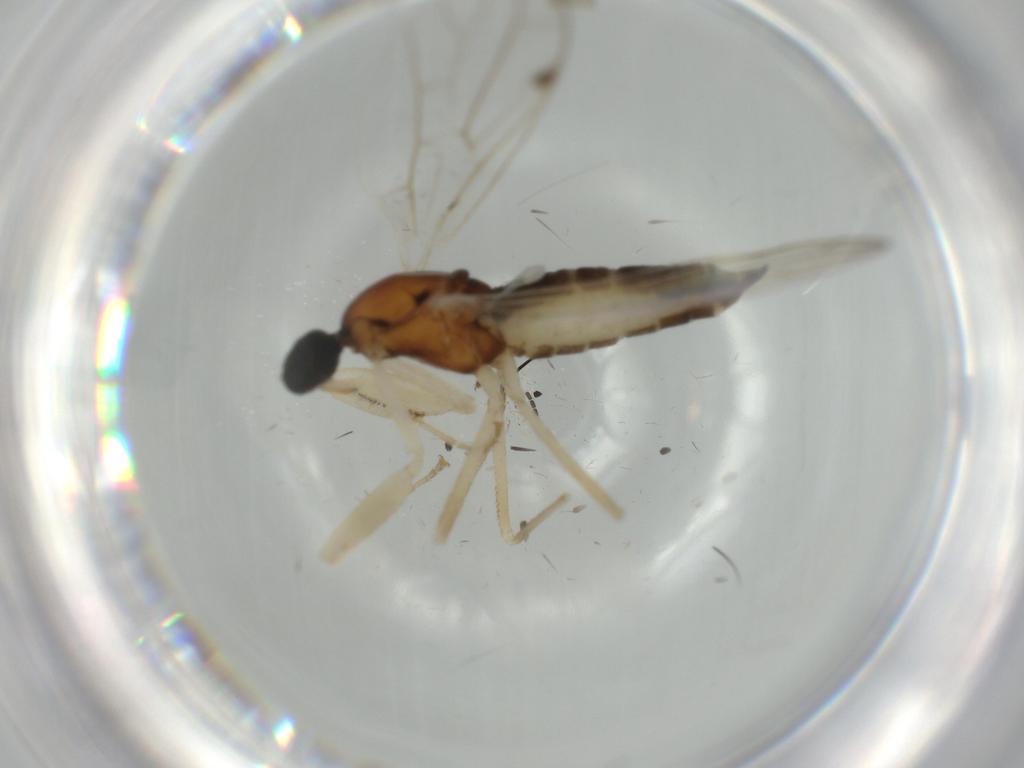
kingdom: Animalia
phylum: Arthropoda
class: Insecta
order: Diptera
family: Empididae
